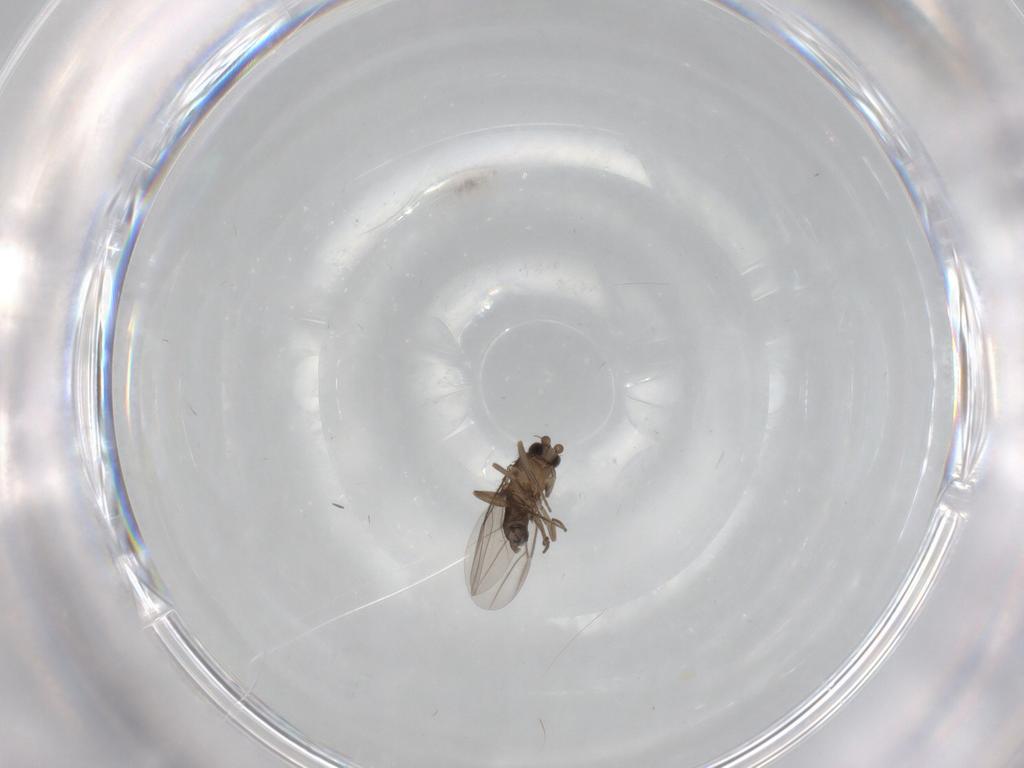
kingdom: Animalia
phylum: Arthropoda
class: Insecta
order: Diptera
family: Phoridae
